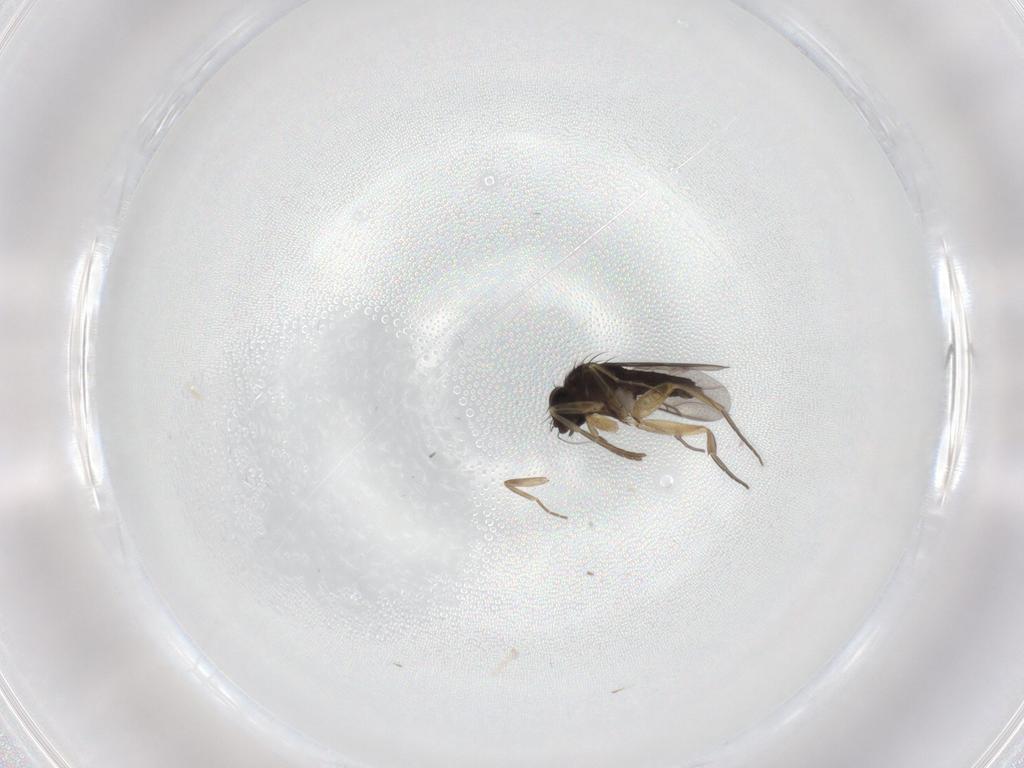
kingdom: Animalia
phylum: Arthropoda
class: Insecta
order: Diptera
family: Phoridae
